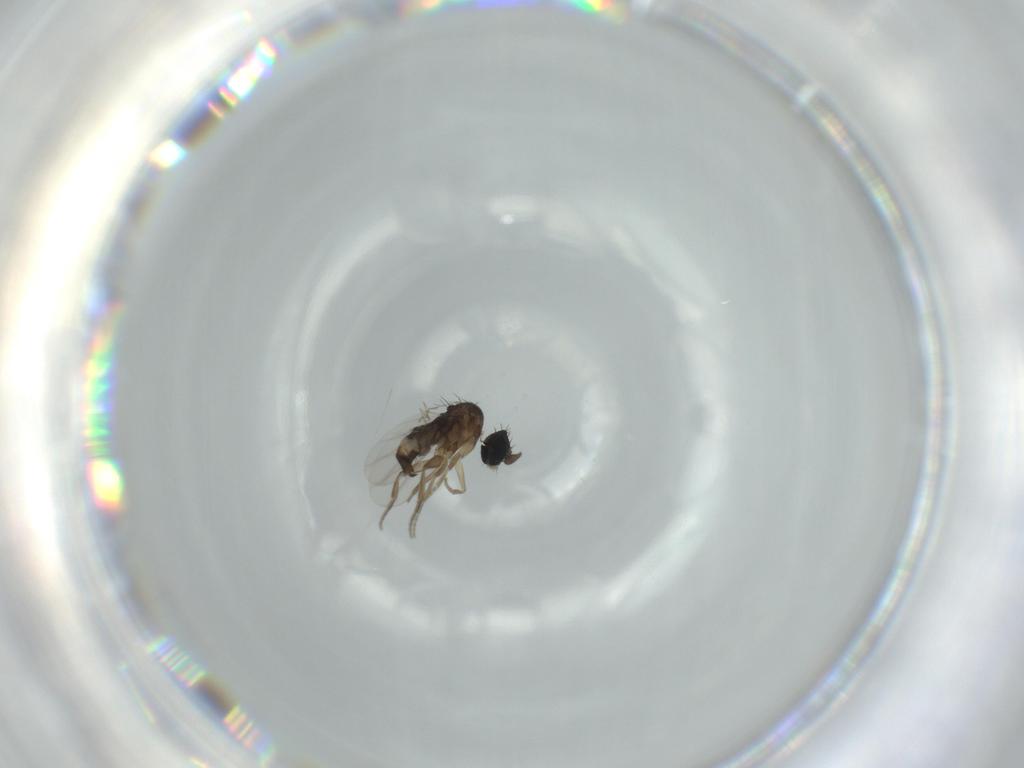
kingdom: Animalia
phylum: Arthropoda
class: Insecta
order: Diptera
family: Phoridae
